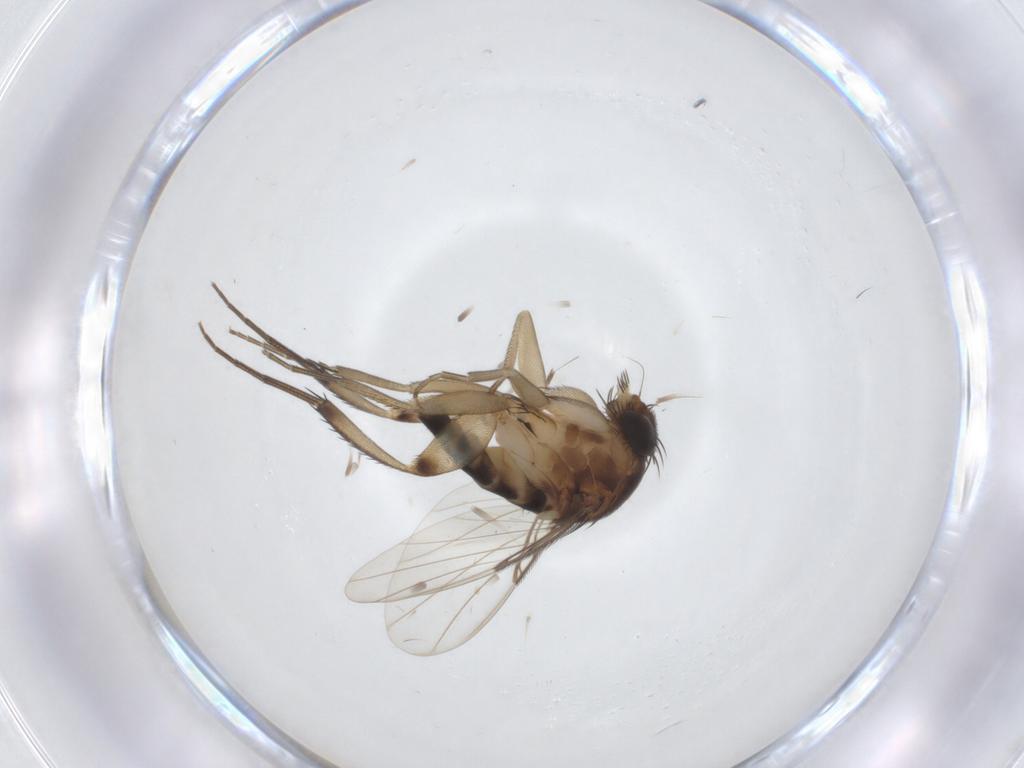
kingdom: Animalia
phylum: Arthropoda
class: Insecta
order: Diptera
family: Phoridae
